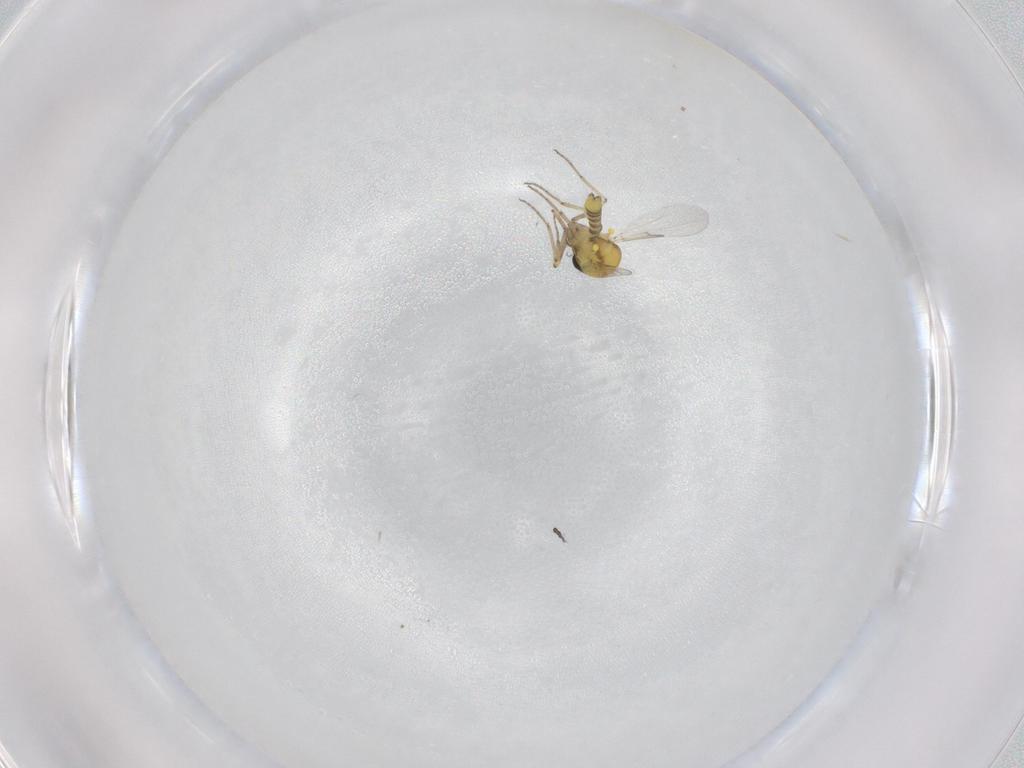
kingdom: Animalia
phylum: Arthropoda
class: Insecta
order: Diptera
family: Ceratopogonidae
